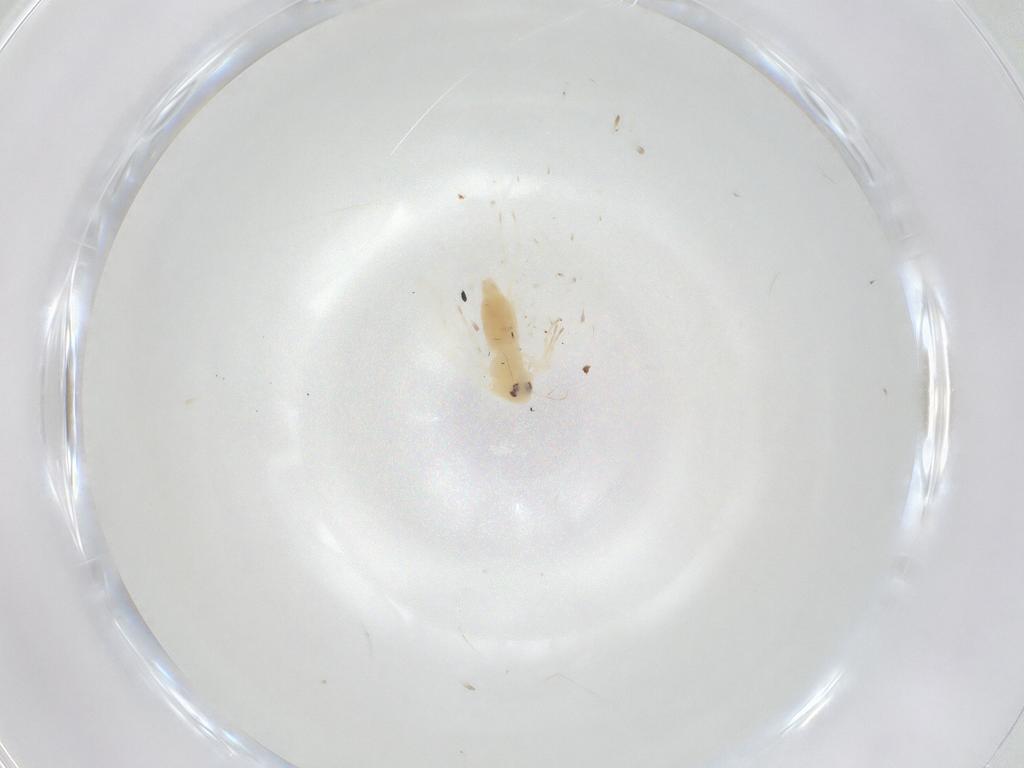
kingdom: Animalia
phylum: Arthropoda
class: Insecta
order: Hemiptera
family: Aleyrodidae
